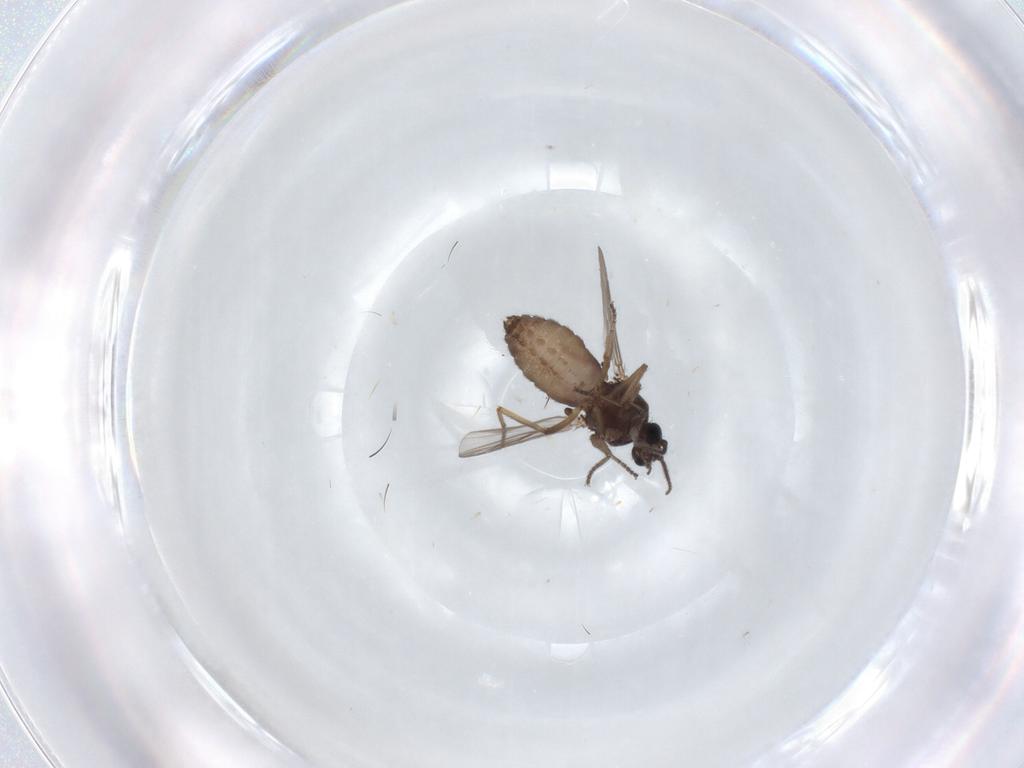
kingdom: Animalia
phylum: Arthropoda
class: Insecta
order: Diptera
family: Ceratopogonidae
